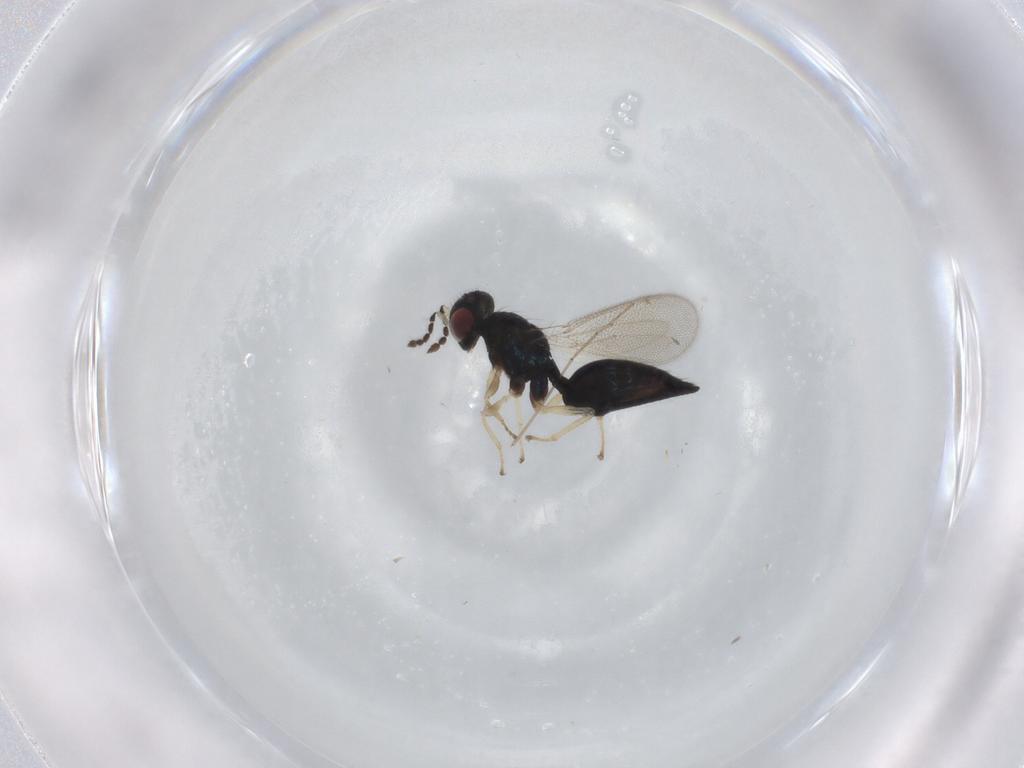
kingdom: Animalia
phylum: Arthropoda
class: Insecta
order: Hymenoptera
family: Eulophidae
